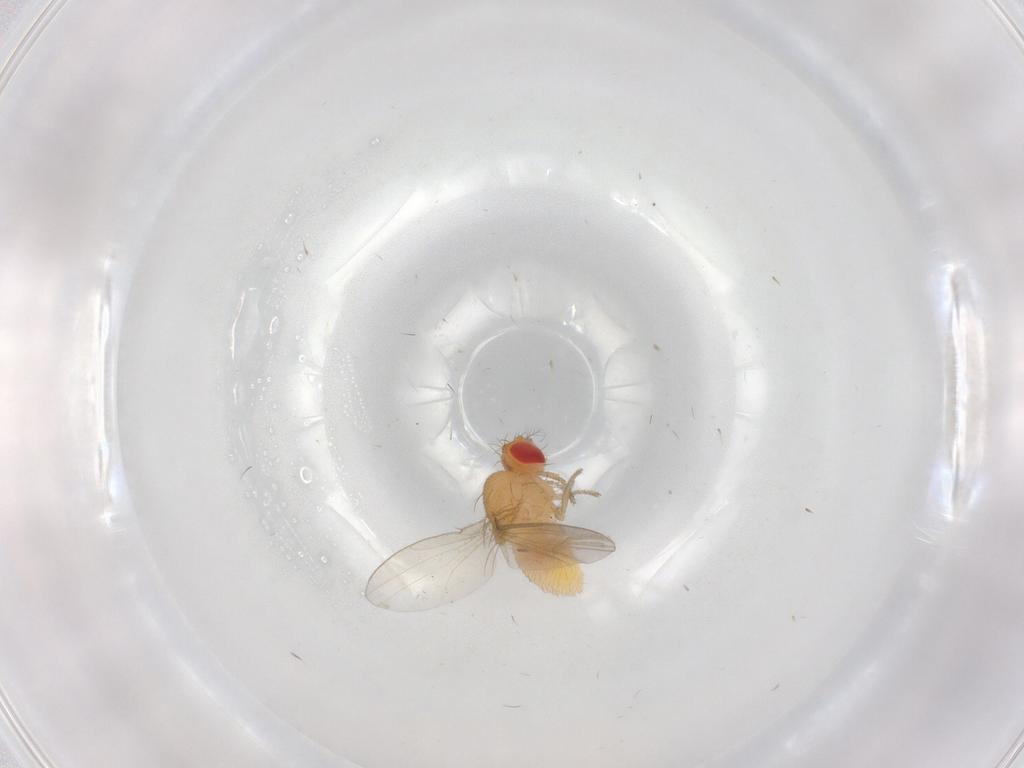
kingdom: Animalia
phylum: Arthropoda
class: Insecta
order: Diptera
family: Drosophilidae
